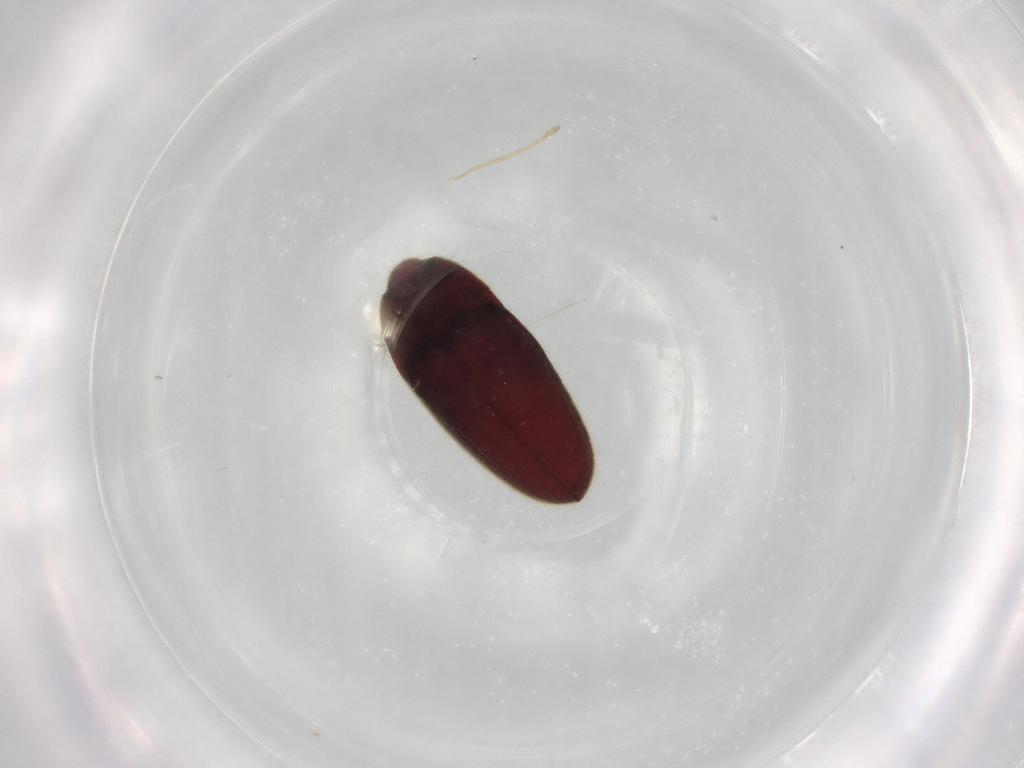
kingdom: Animalia
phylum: Arthropoda
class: Insecta
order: Coleoptera
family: Throscidae
